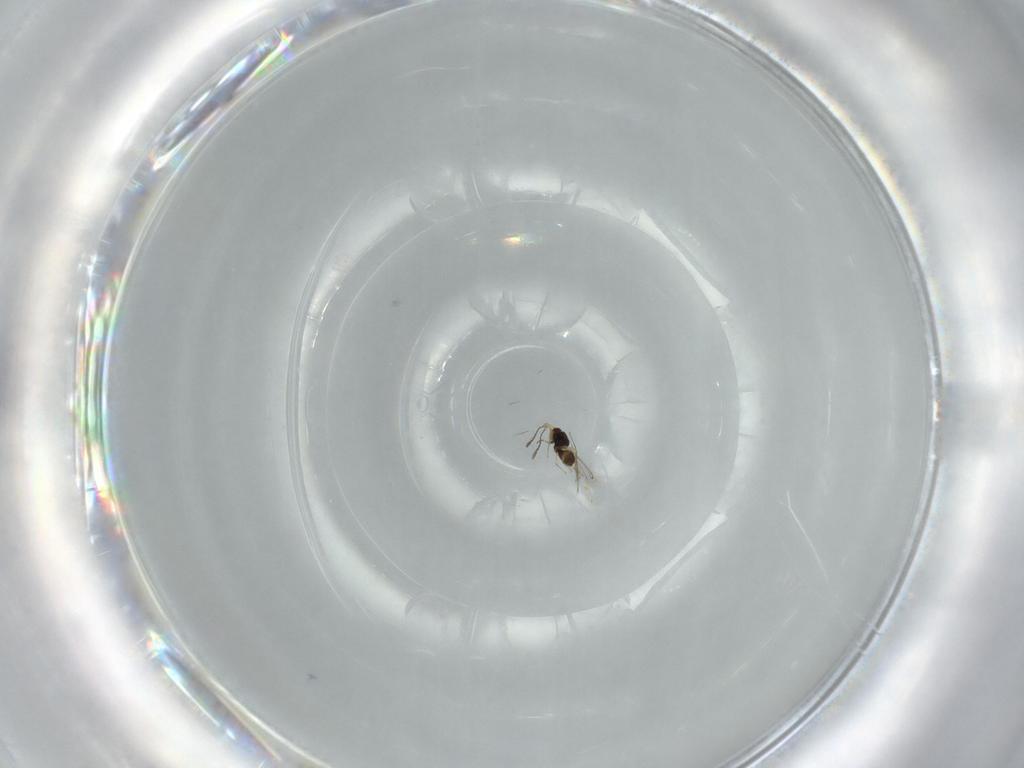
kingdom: Animalia
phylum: Arthropoda
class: Insecta
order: Hymenoptera
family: Mymaridae
